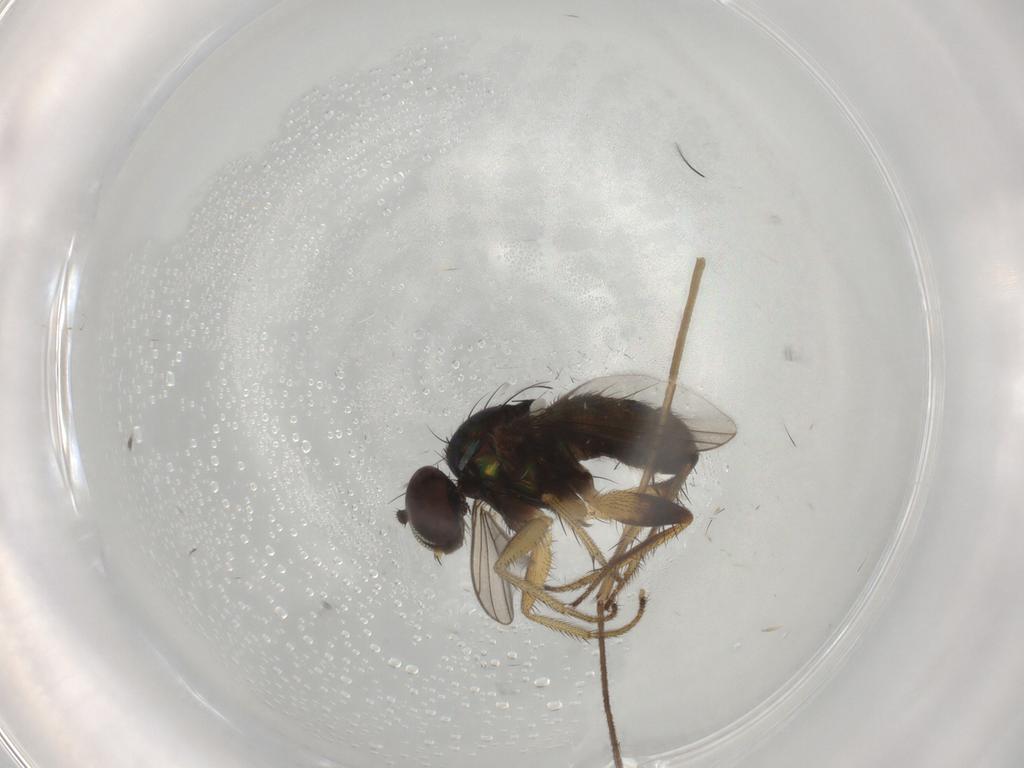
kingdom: Animalia
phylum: Arthropoda
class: Insecta
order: Diptera
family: Dolichopodidae
